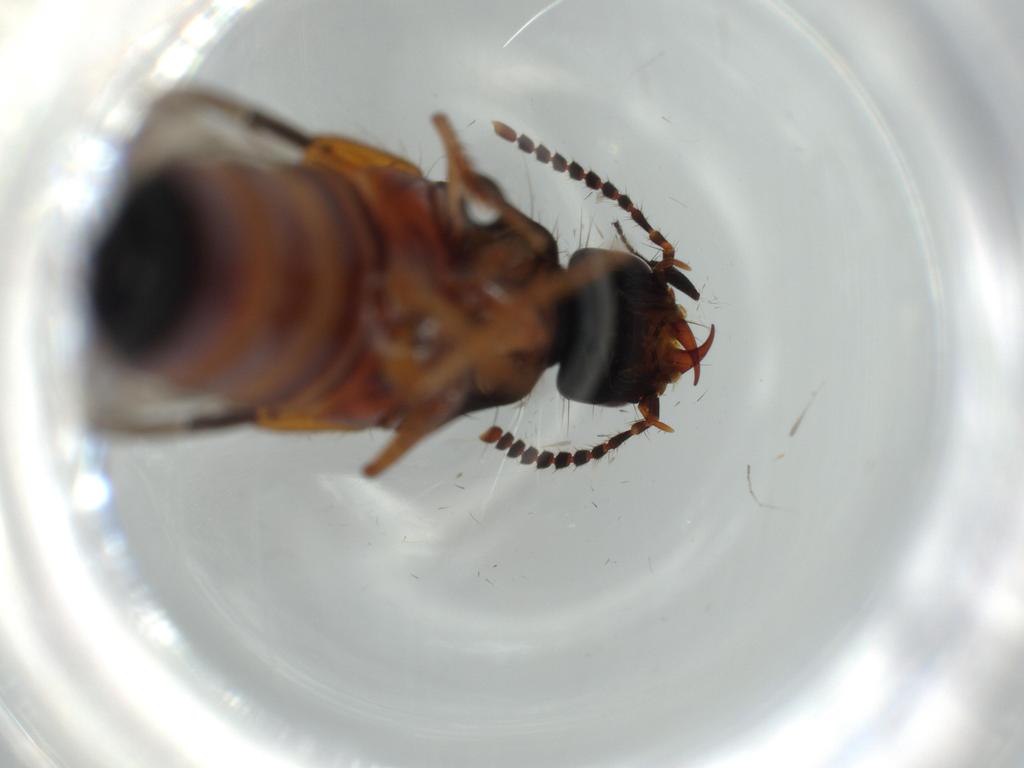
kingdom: Animalia
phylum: Arthropoda
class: Insecta
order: Coleoptera
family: Staphylinidae
